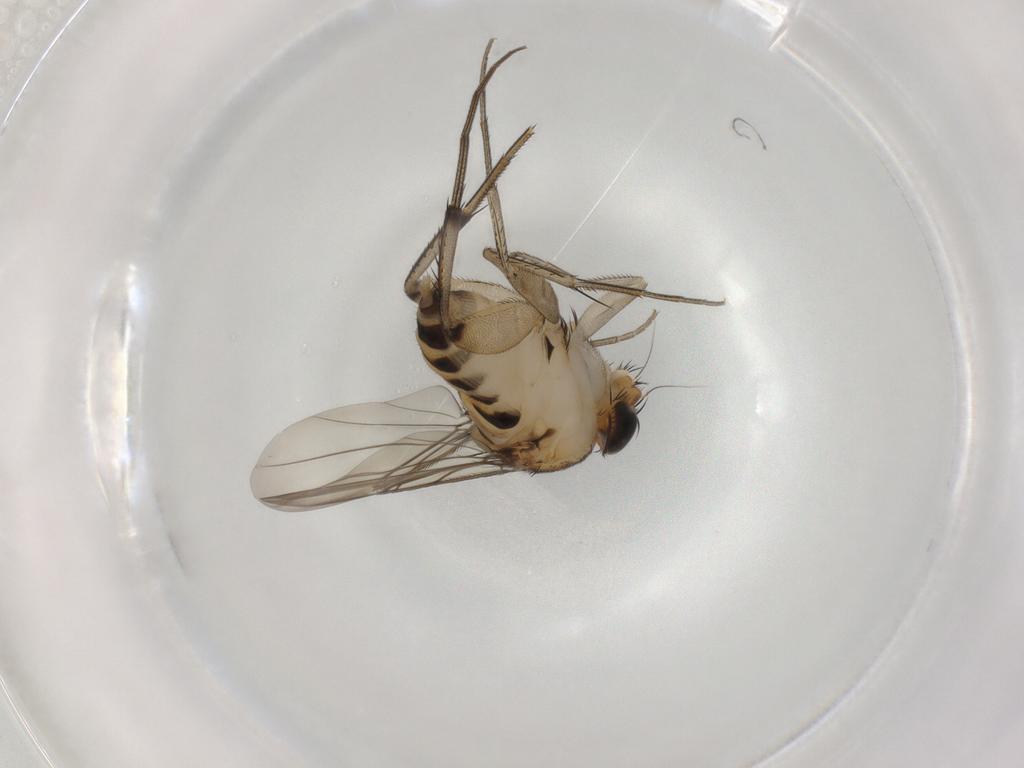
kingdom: Animalia
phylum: Arthropoda
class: Insecta
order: Diptera
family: Phoridae
